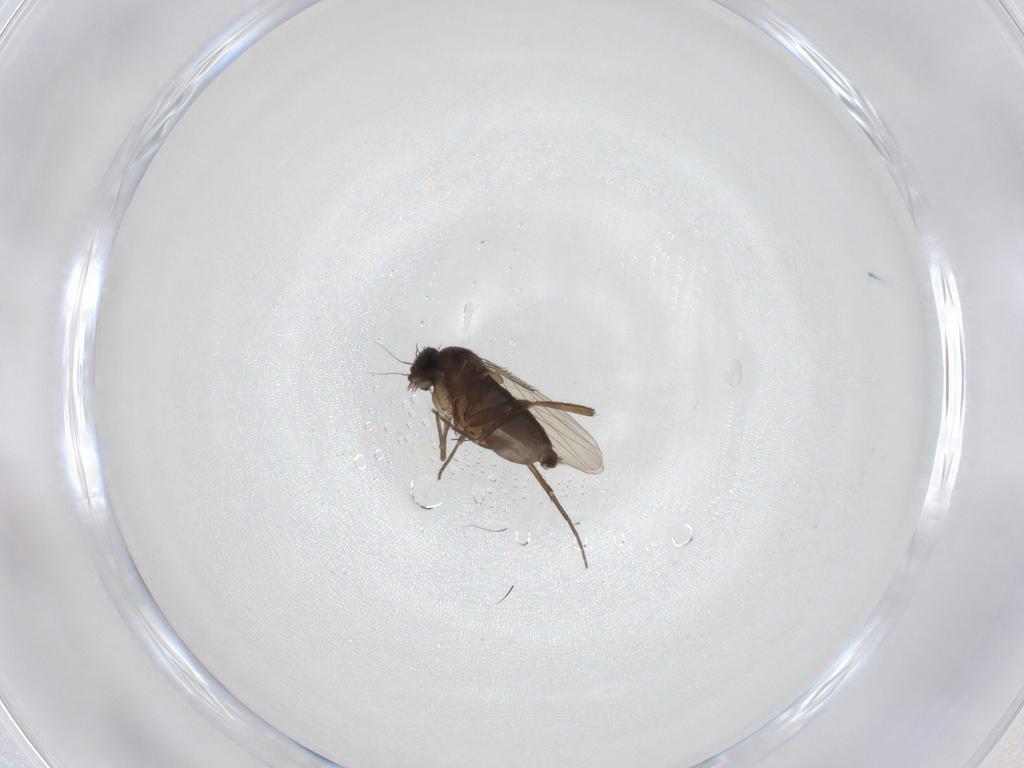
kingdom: Animalia
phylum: Arthropoda
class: Insecta
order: Diptera
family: Phoridae
